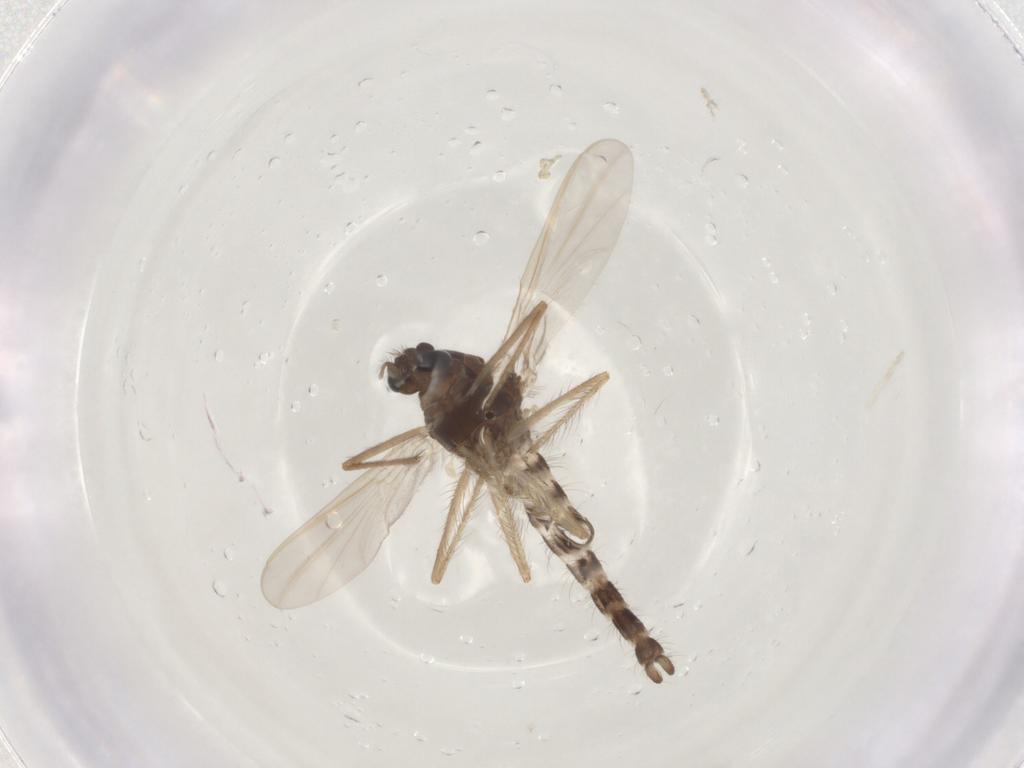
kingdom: Animalia
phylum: Arthropoda
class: Insecta
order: Diptera
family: Chironomidae
